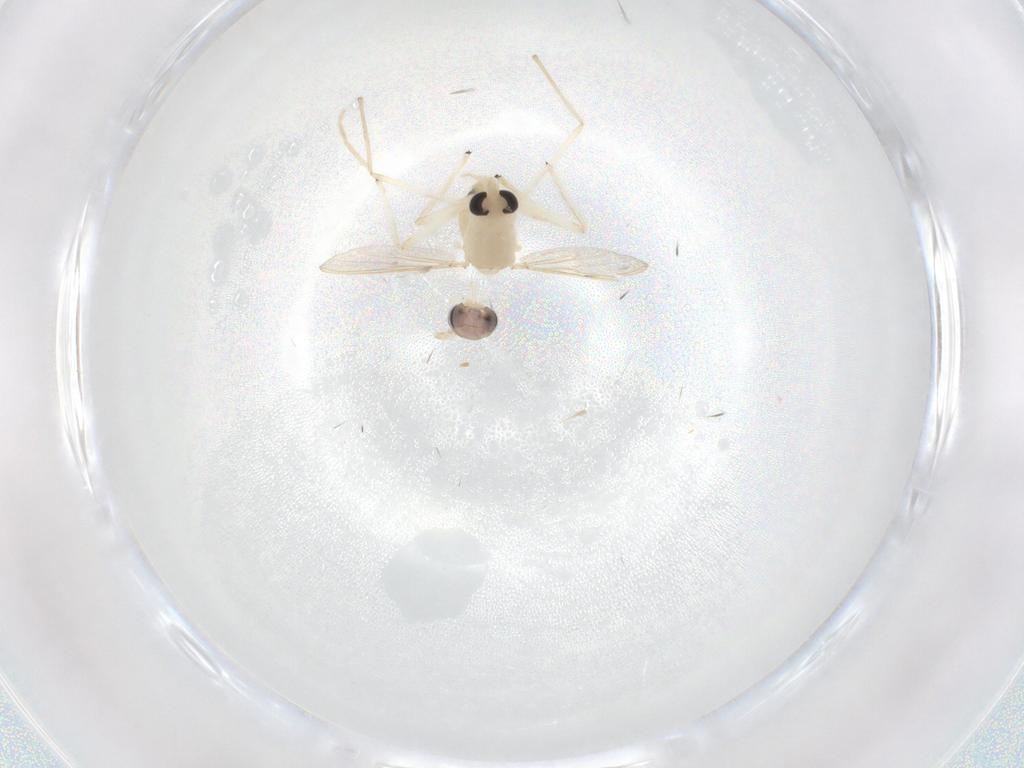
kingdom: Animalia
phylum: Arthropoda
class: Insecta
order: Diptera
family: Chironomidae
